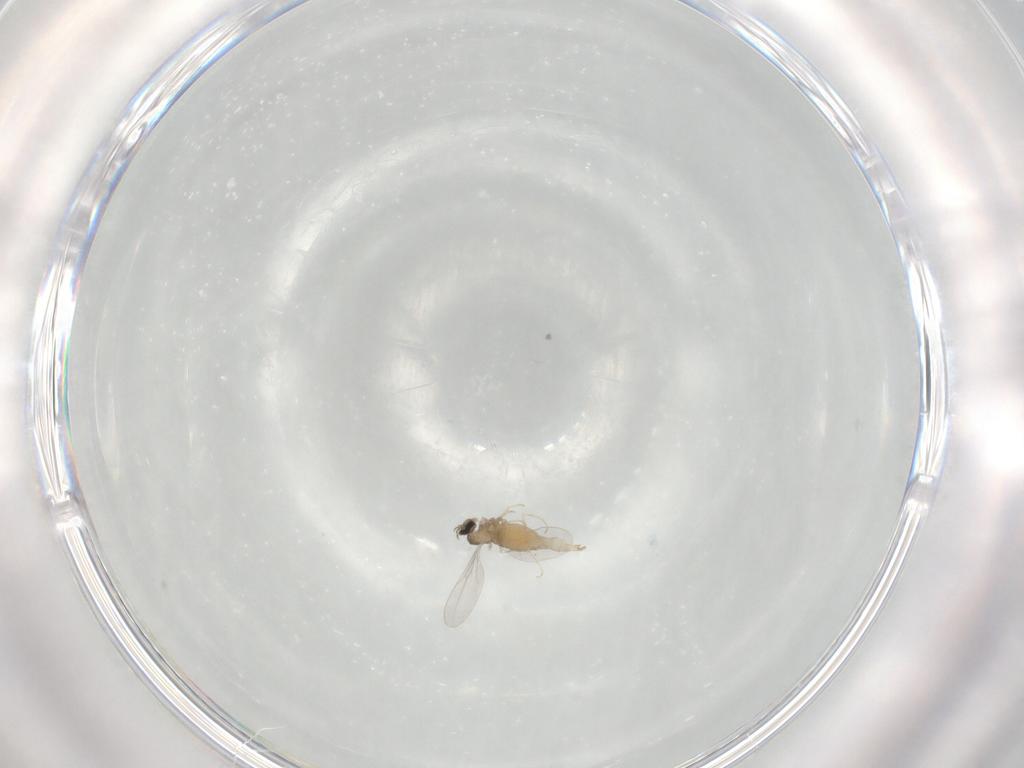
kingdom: Animalia
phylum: Arthropoda
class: Insecta
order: Diptera
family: Cecidomyiidae
